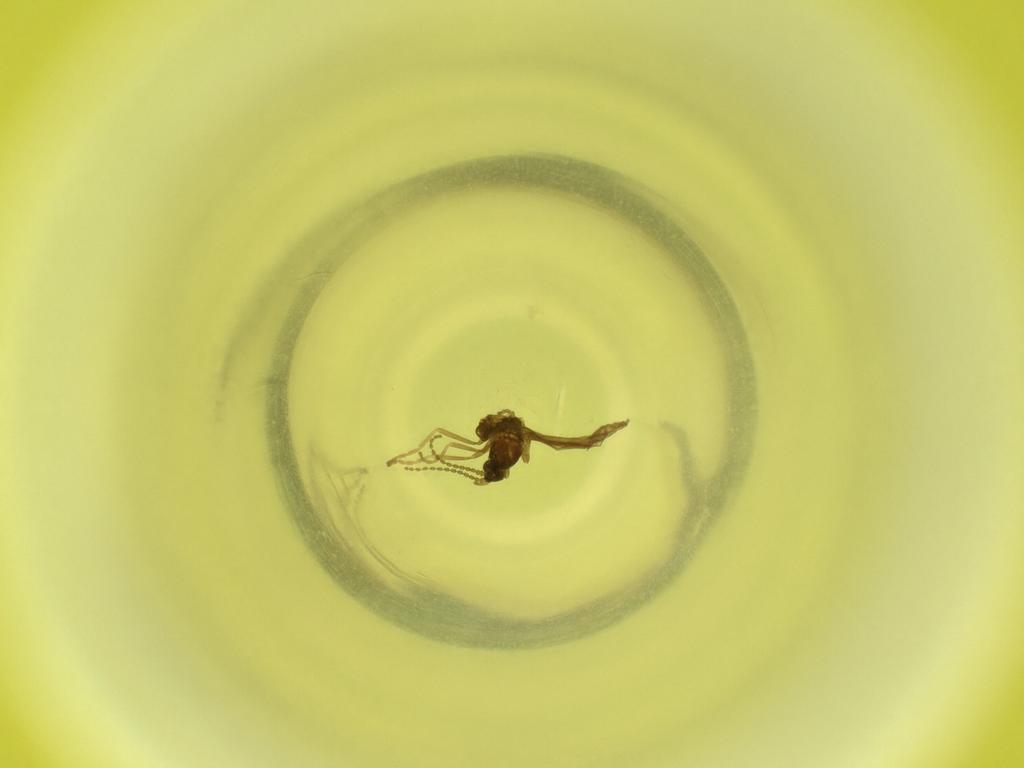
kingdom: Animalia
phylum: Arthropoda
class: Insecta
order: Diptera
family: Cecidomyiidae
